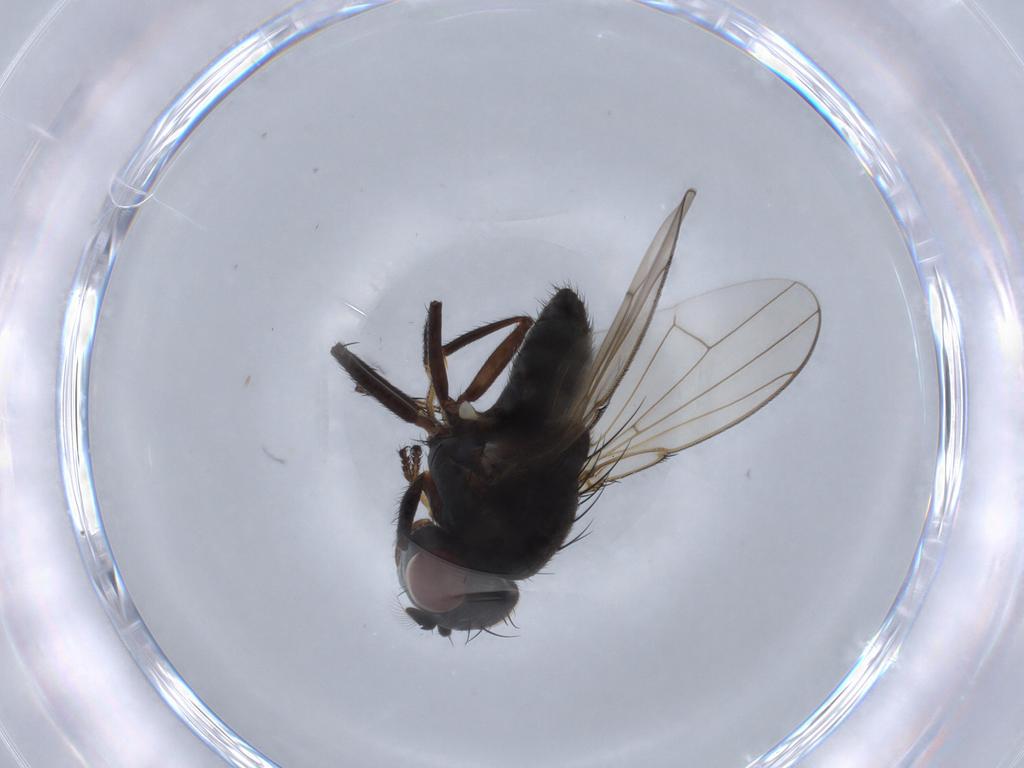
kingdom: Animalia
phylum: Arthropoda
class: Insecta
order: Diptera
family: Ephydridae
